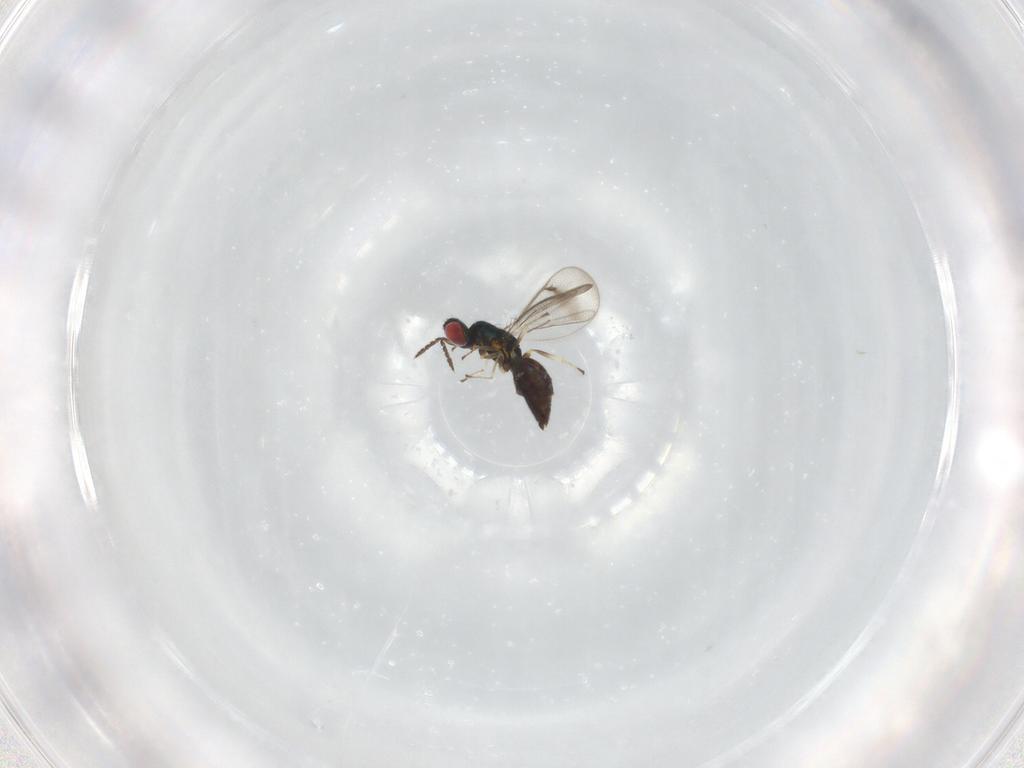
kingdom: Animalia
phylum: Arthropoda
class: Insecta
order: Hymenoptera
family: Eulophidae
